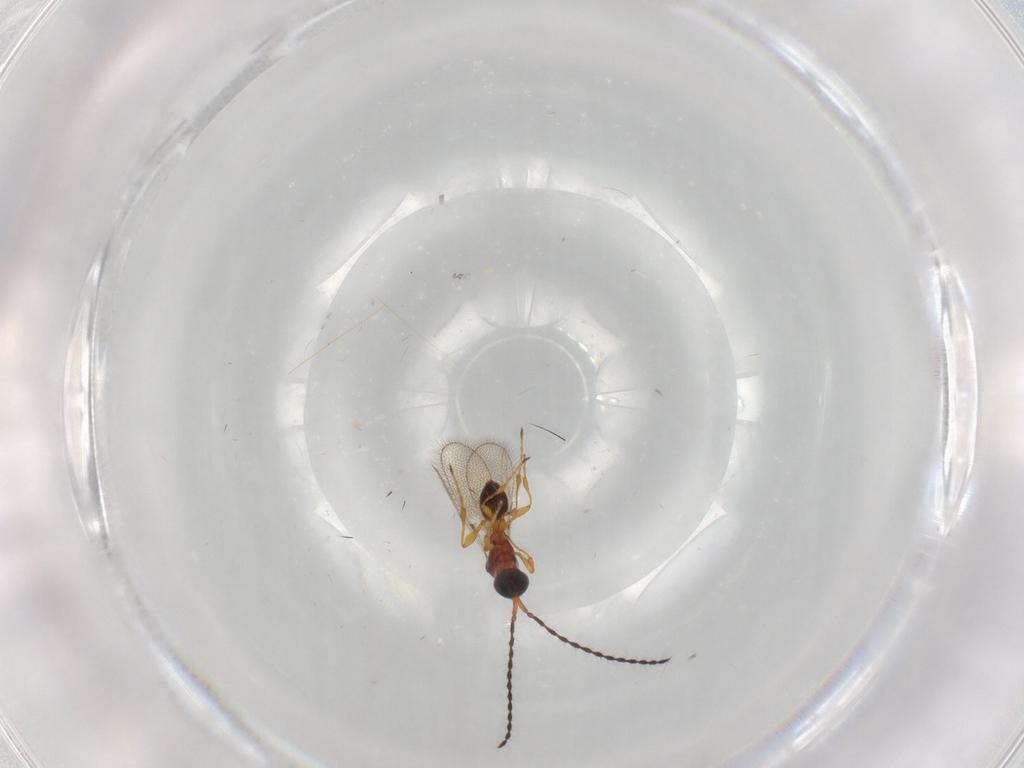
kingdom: Animalia
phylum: Arthropoda
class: Insecta
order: Hymenoptera
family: Diapriidae
